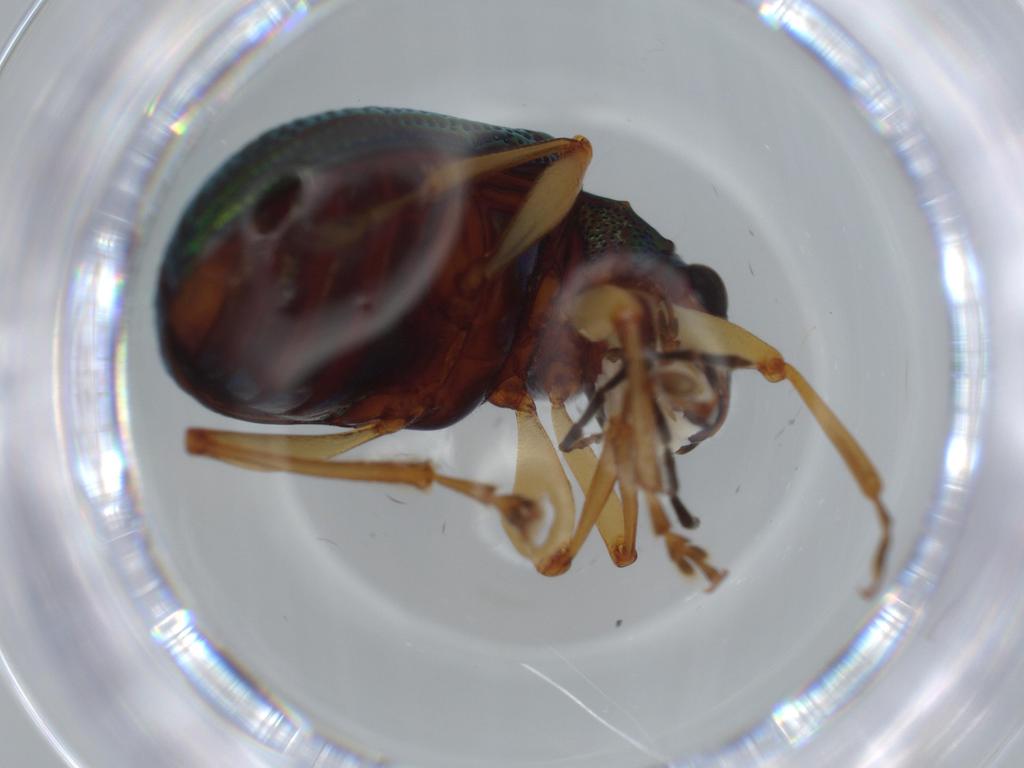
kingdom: Animalia
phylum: Arthropoda
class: Insecta
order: Coleoptera
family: Chrysomelidae
